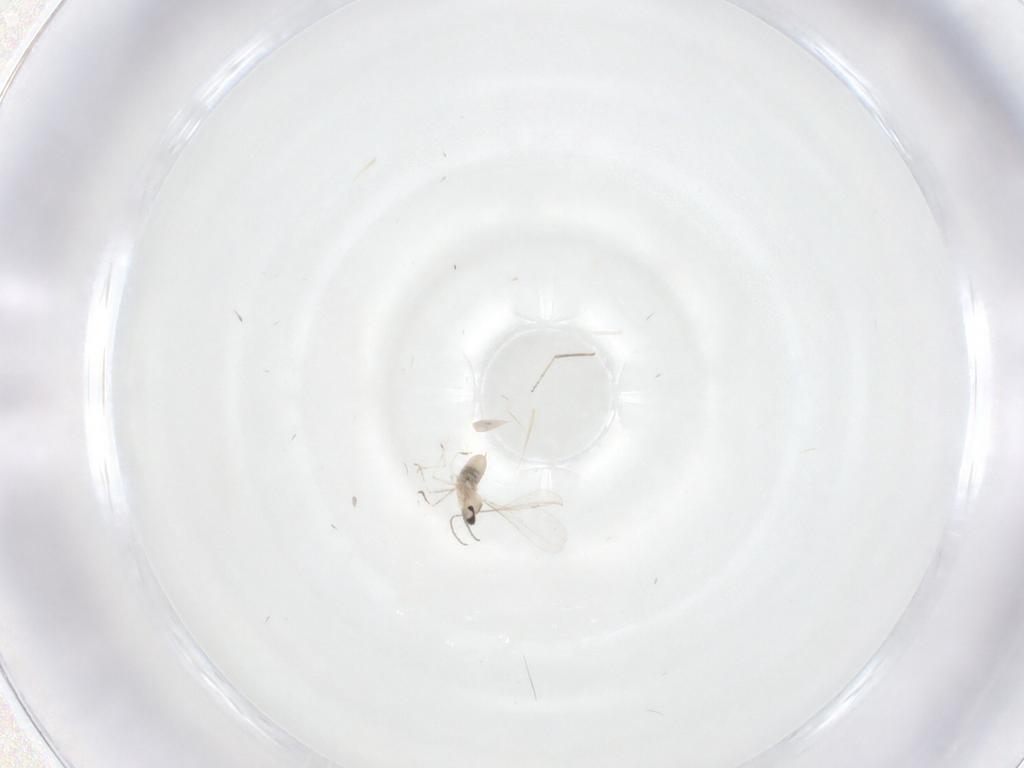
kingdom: Animalia
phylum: Arthropoda
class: Insecta
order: Diptera
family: Cecidomyiidae
